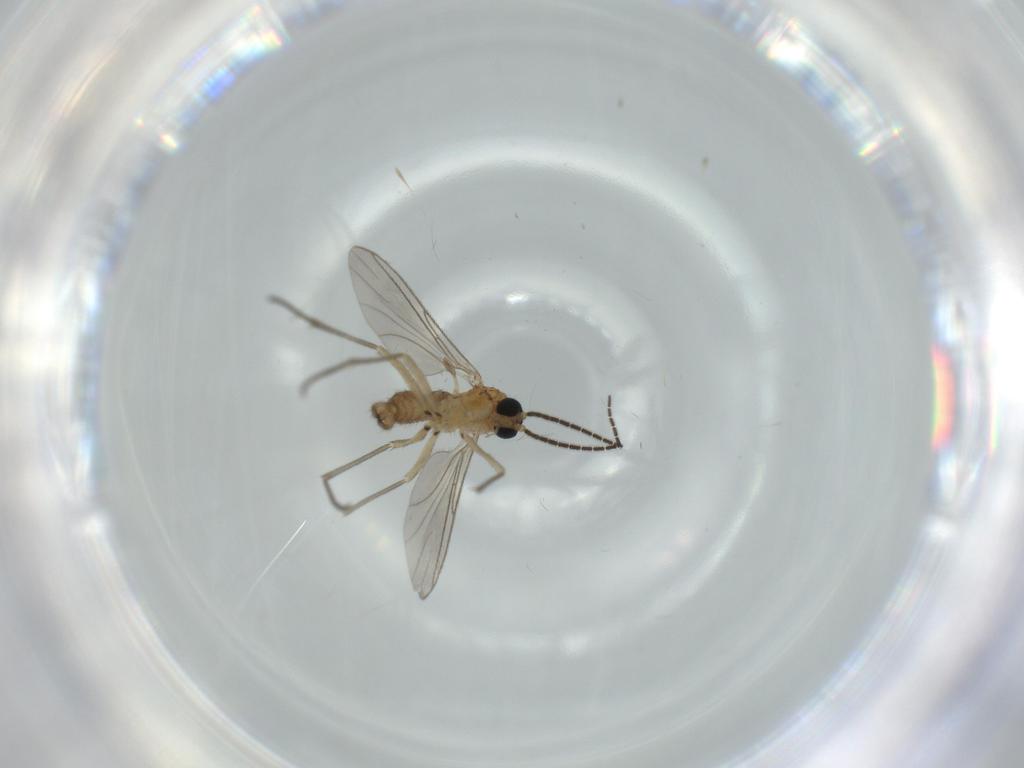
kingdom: Animalia
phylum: Arthropoda
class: Insecta
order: Diptera
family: Sciaridae
